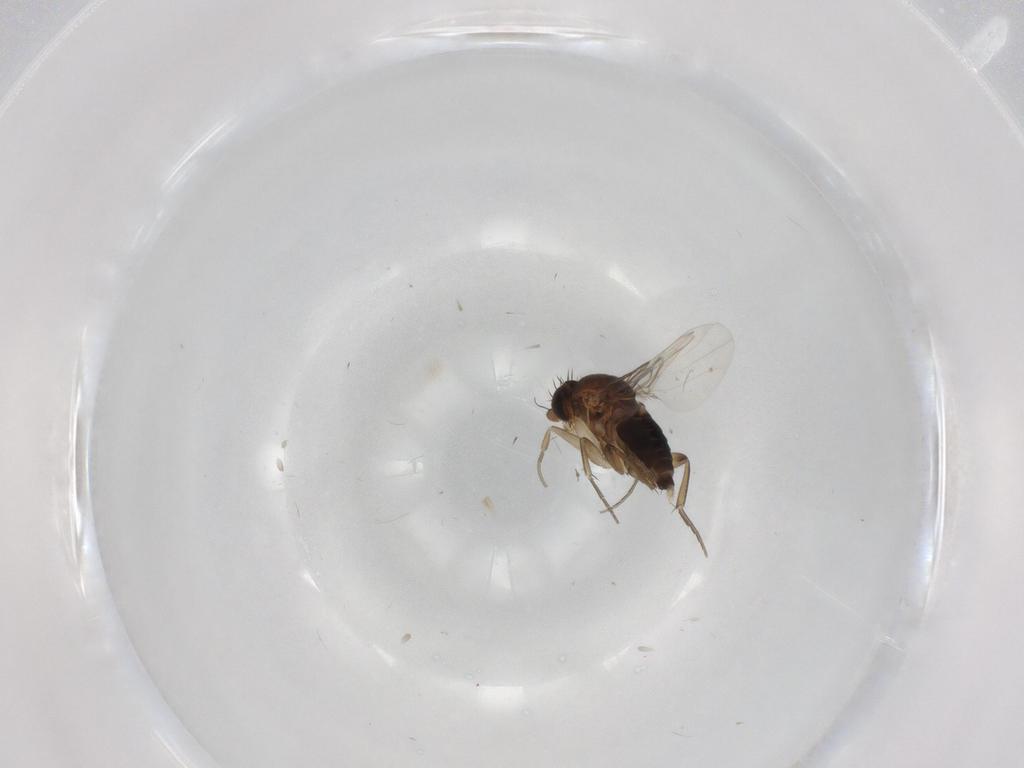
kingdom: Animalia
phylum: Arthropoda
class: Insecta
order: Diptera
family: Phoridae
